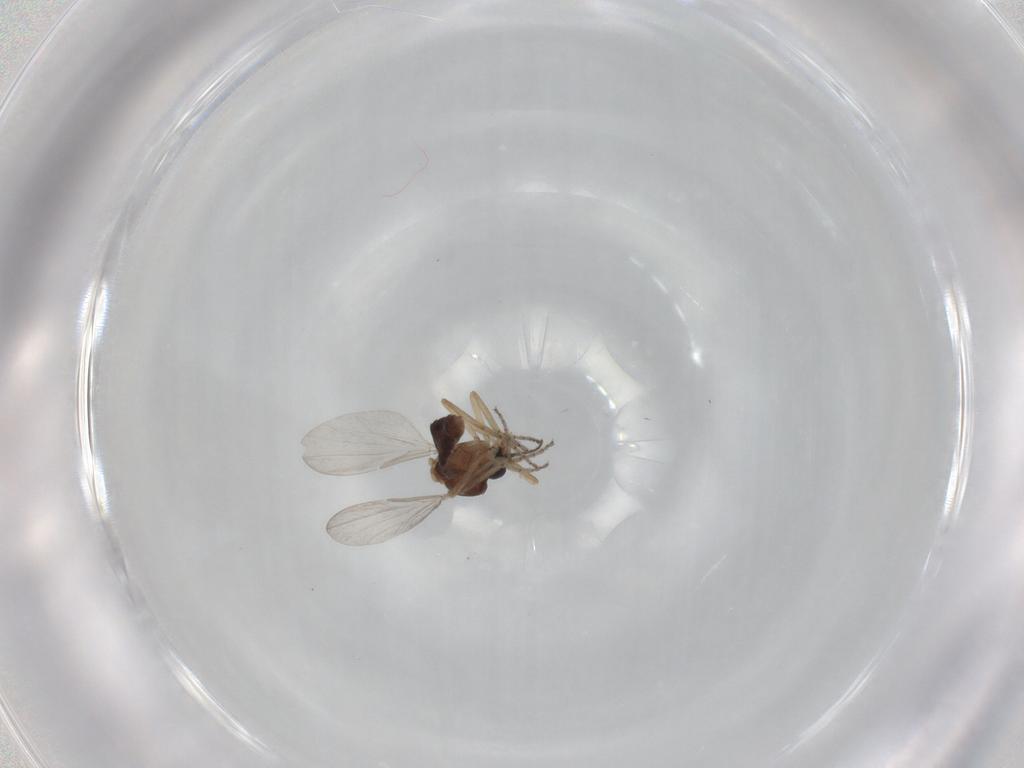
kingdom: Animalia
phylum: Arthropoda
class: Insecta
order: Diptera
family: Ceratopogonidae
